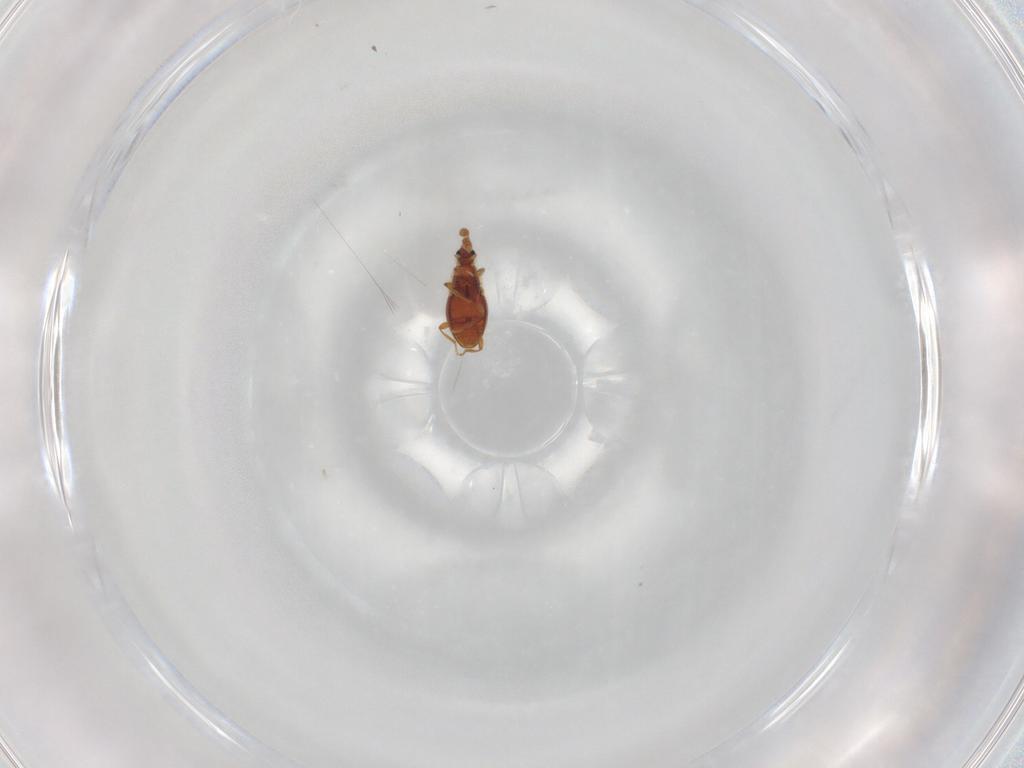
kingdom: Animalia
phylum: Arthropoda
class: Insecta
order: Coleoptera
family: Staphylinidae
